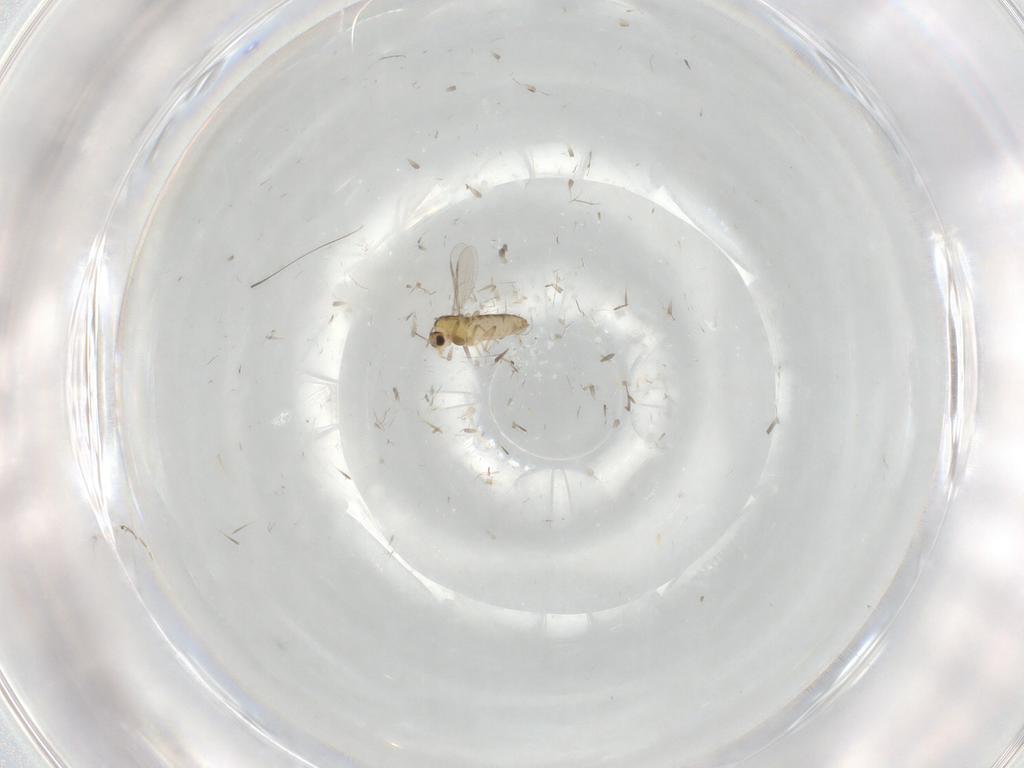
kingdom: Animalia
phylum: Arthropoda
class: Insecta
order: Diptera
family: Chironomidae
